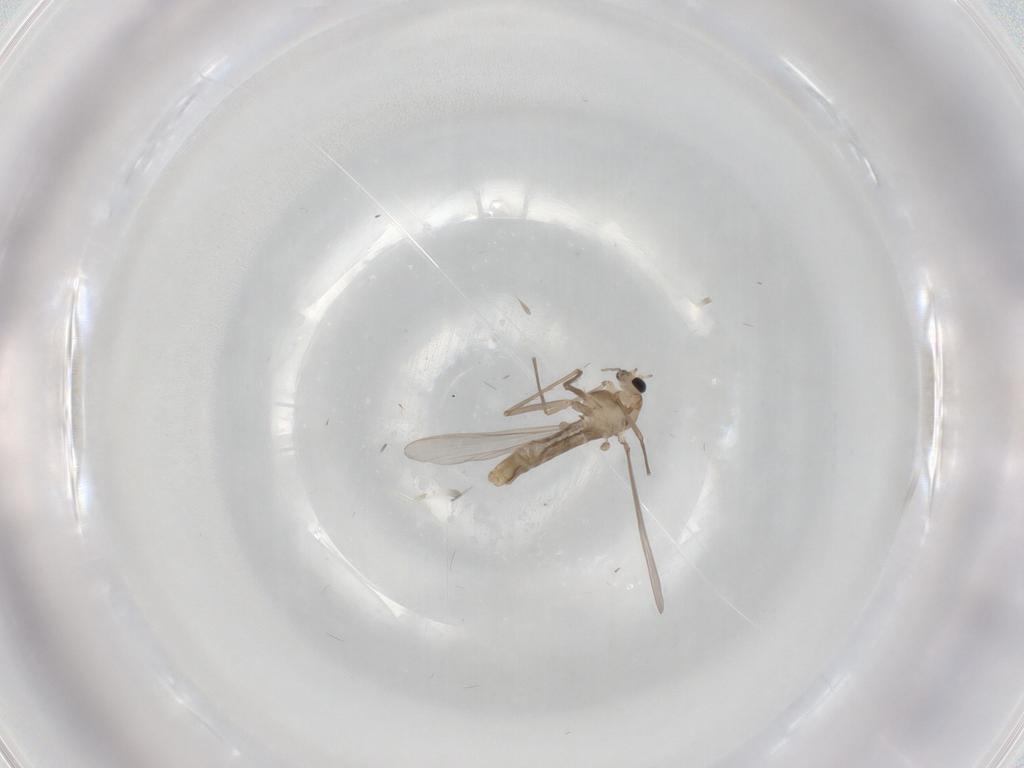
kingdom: Animalia
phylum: Arthropoda
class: Insecta
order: Diptera
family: Chironomidae
